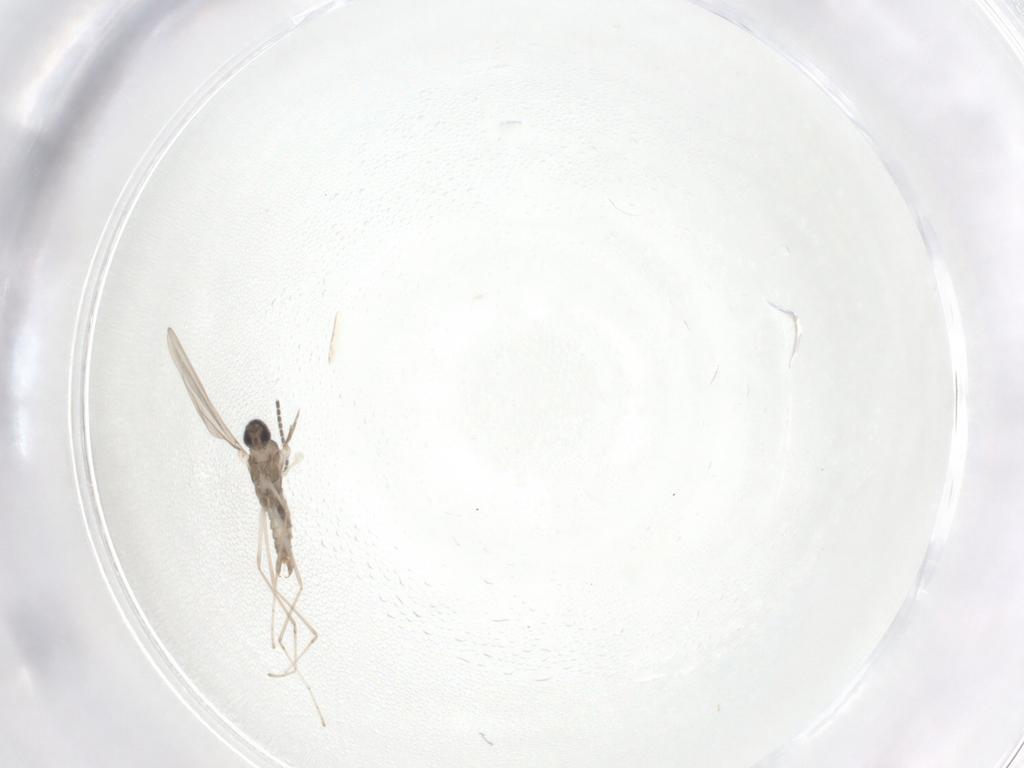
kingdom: Animalia
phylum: Arthropoda
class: Insecta
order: Diptera
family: Cecidomyiidae
